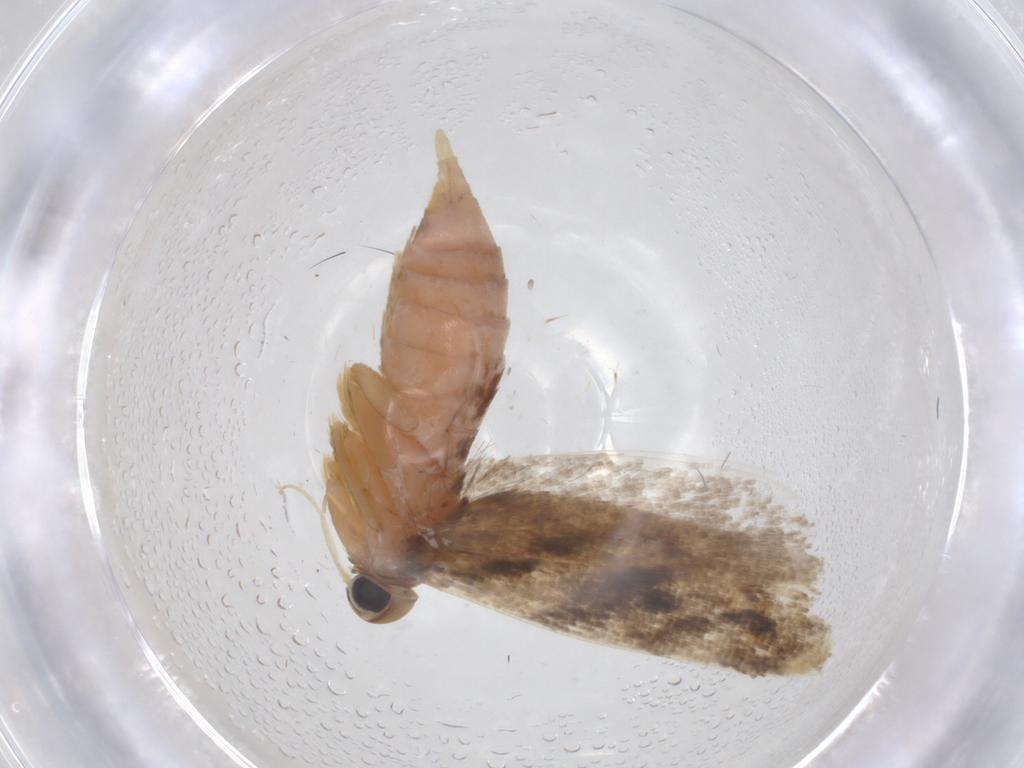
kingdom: Animalia
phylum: Arthropoda
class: Insecta
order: Lepidoptera
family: Gelechiidae
